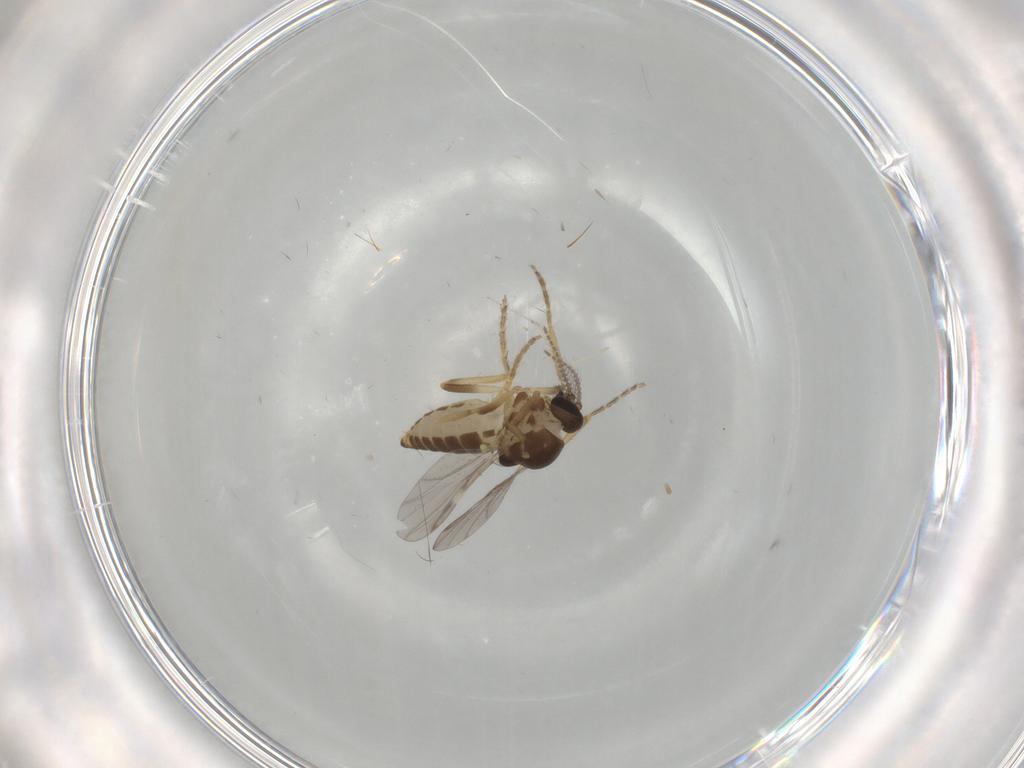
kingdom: Animalia
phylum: Arthropoda
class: Insecta
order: Diptera
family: Ceratopogonidae
